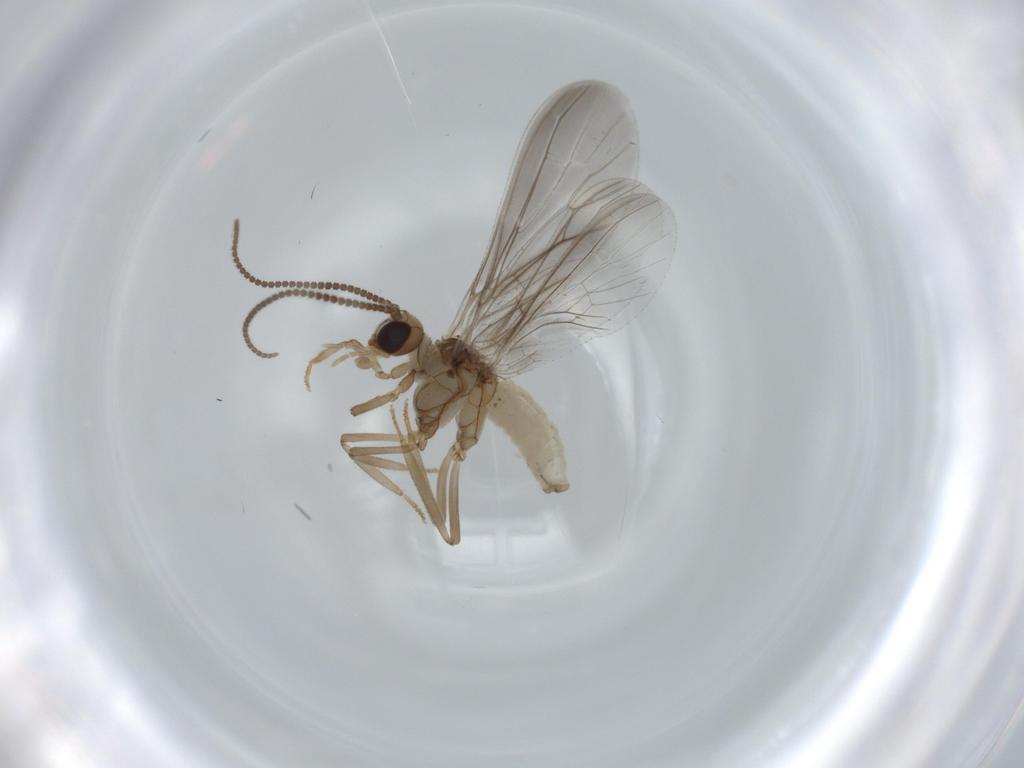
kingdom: Animalia
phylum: Arthropoda
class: Insecta
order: Neuroptera
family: Coniopterygidae
